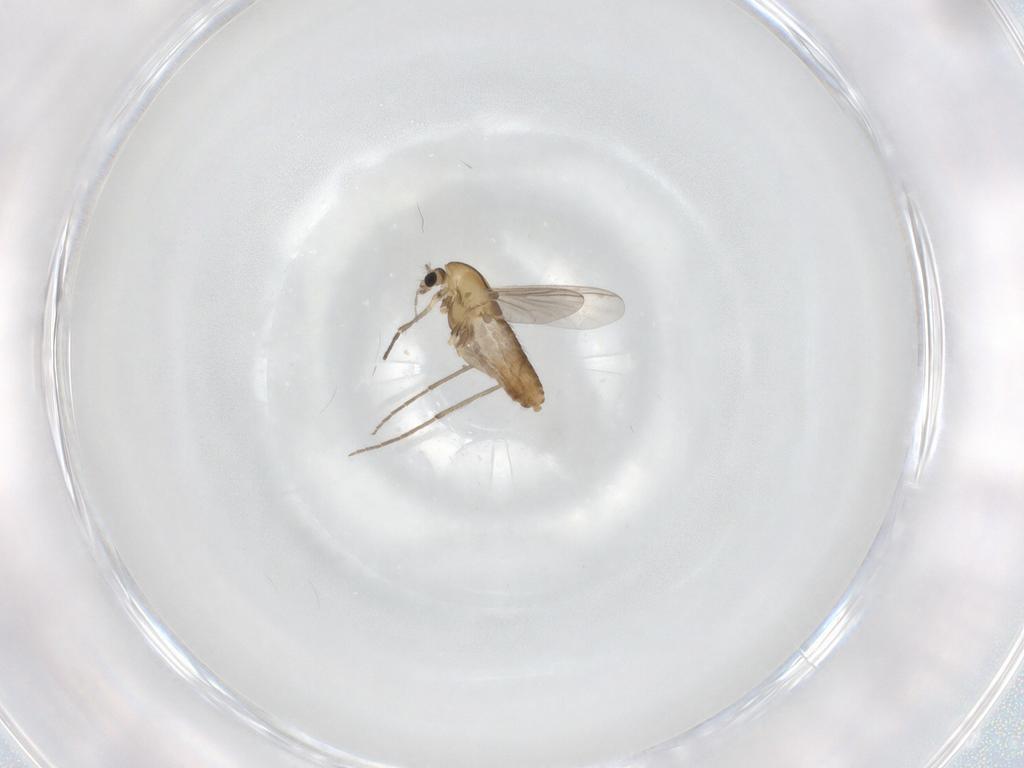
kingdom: Animalia
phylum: Arthropoda
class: Insecta
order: Diptera
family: Chironomidae
